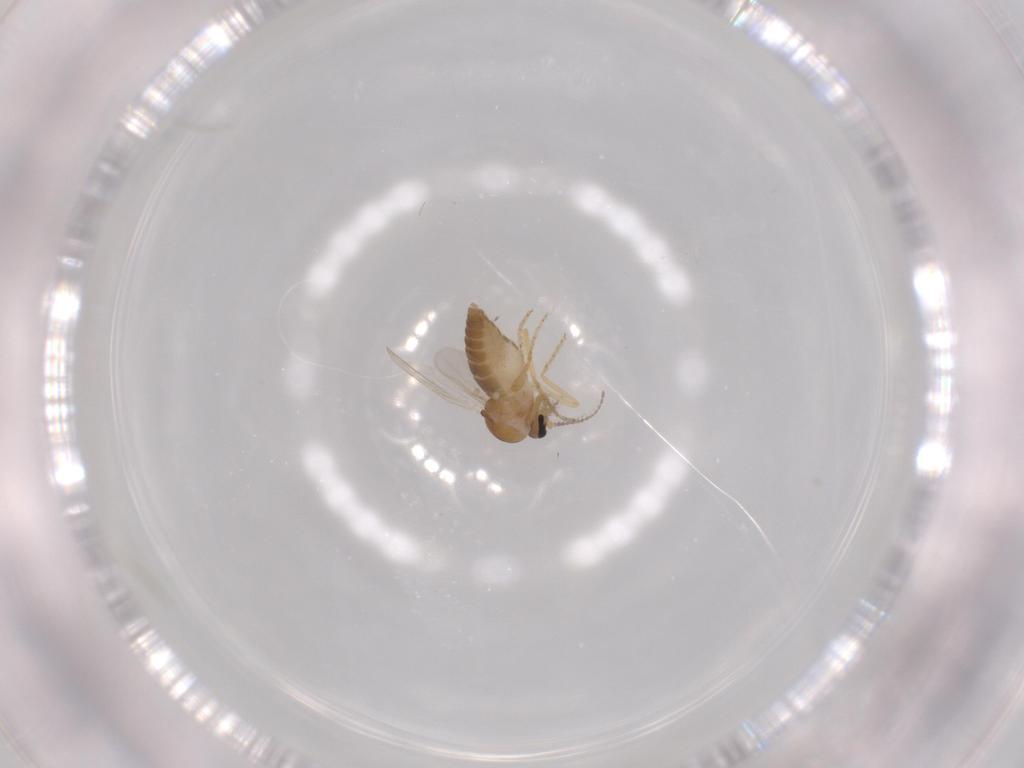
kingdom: Animalia
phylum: Arthropoda
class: Insecta
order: Diptera
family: Ceratopogonidae
